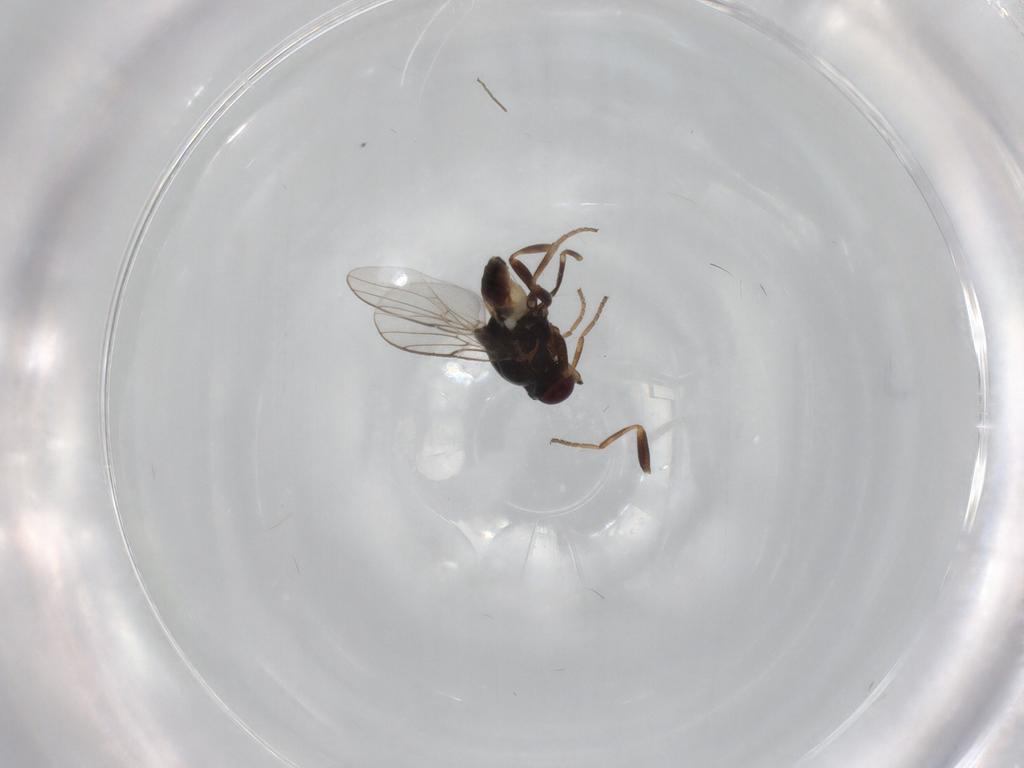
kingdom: Animalia
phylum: Arthropoda
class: Insecta
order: Diptera
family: Chloropidae
